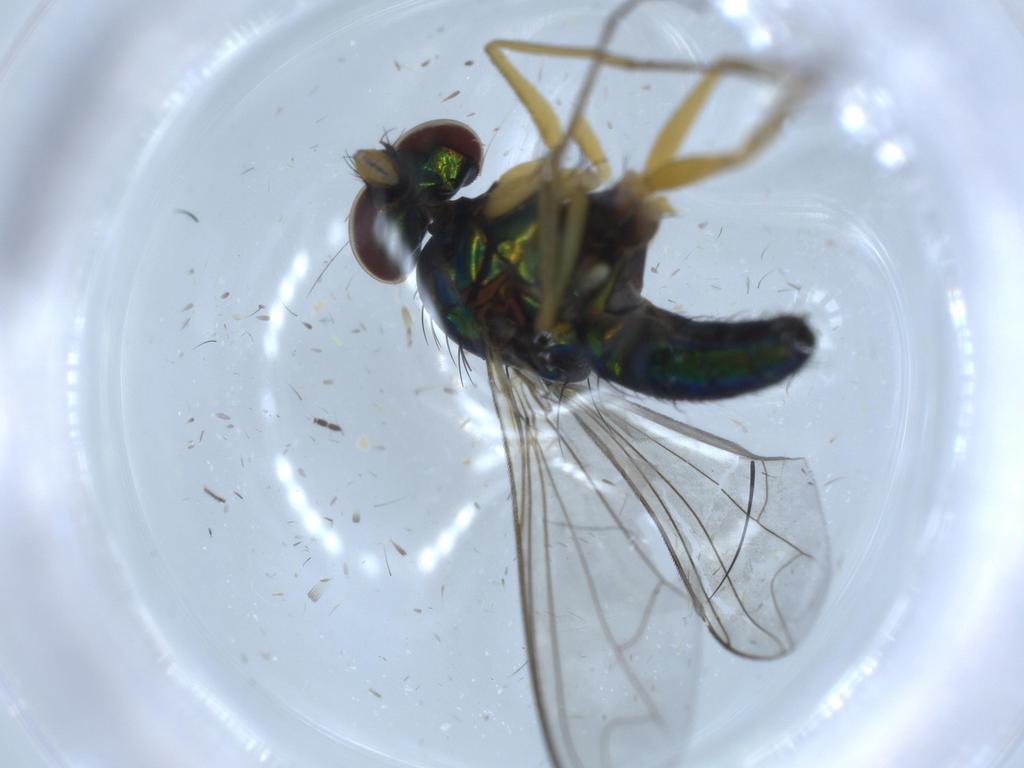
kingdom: Animalia
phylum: Arthropoda
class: Insecta
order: Diptera
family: Dolichopodidae
